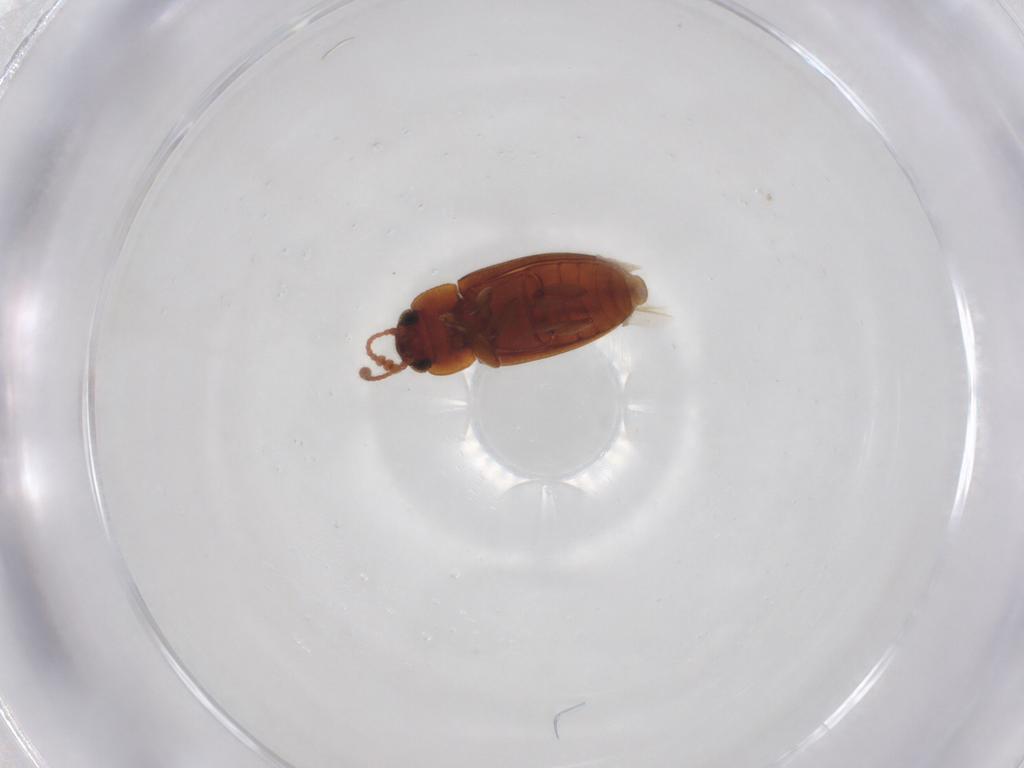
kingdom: Animalia
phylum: Arthropoda
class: Insecta
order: Coleoptera
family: Erotylidae
